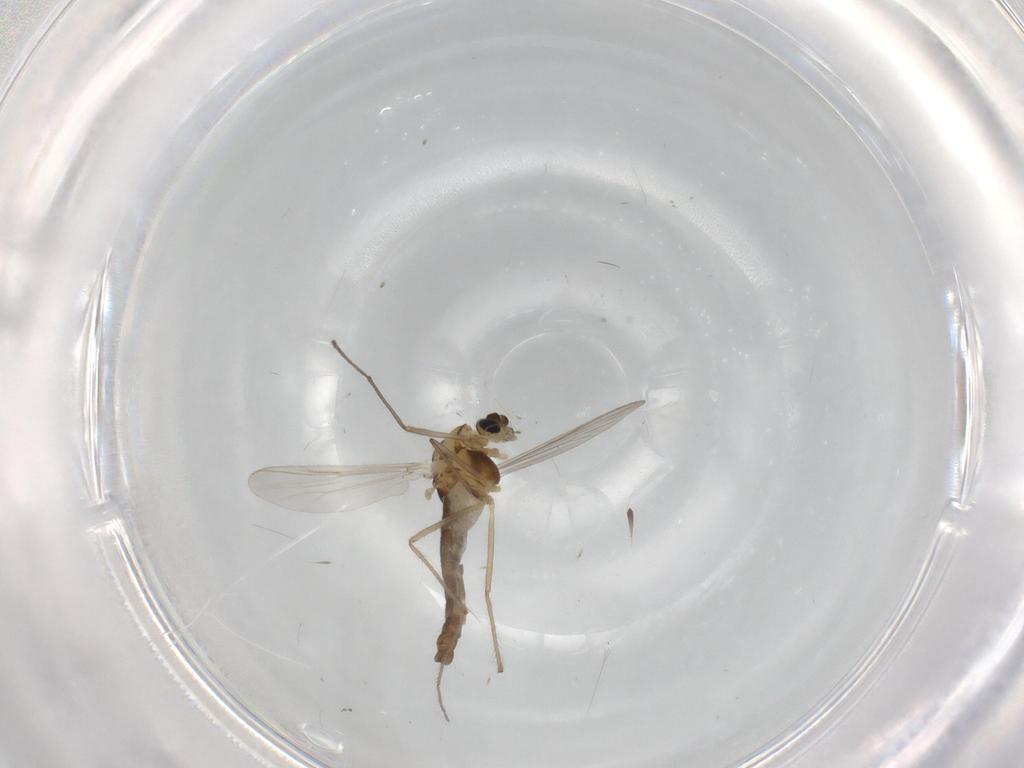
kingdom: Animalia
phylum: Arthropoda
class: Insecta
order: Diptera
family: Chironomidae
